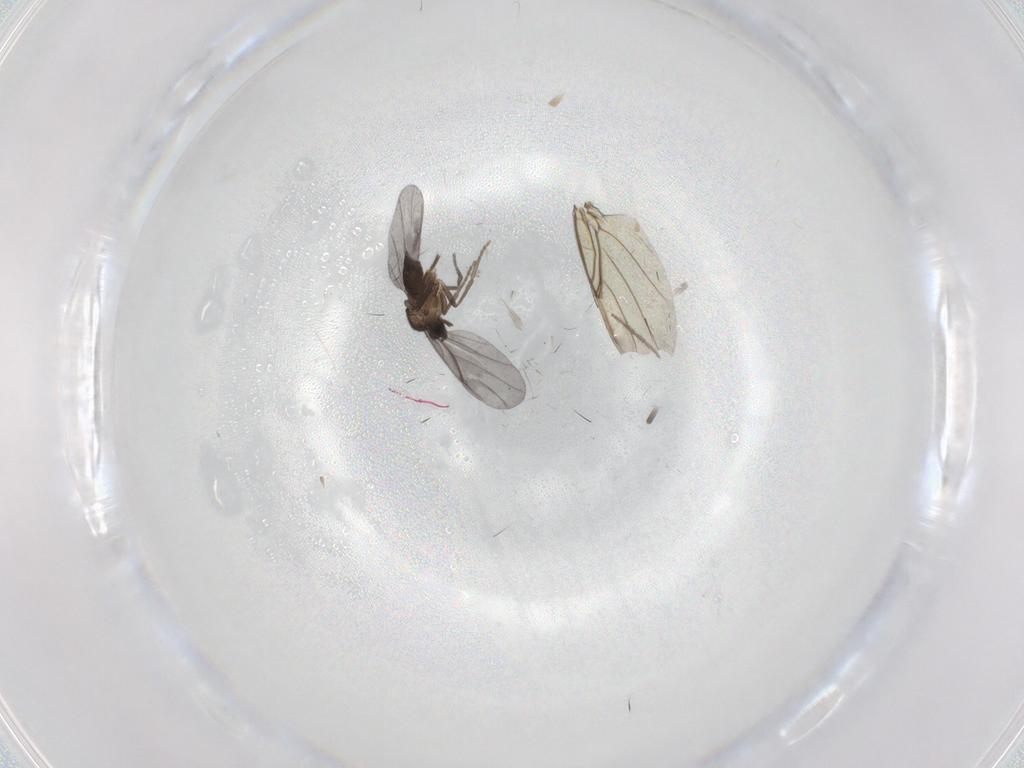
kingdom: Animalia
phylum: Arthropoda
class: Insecta
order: Diptera
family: Phoridae
